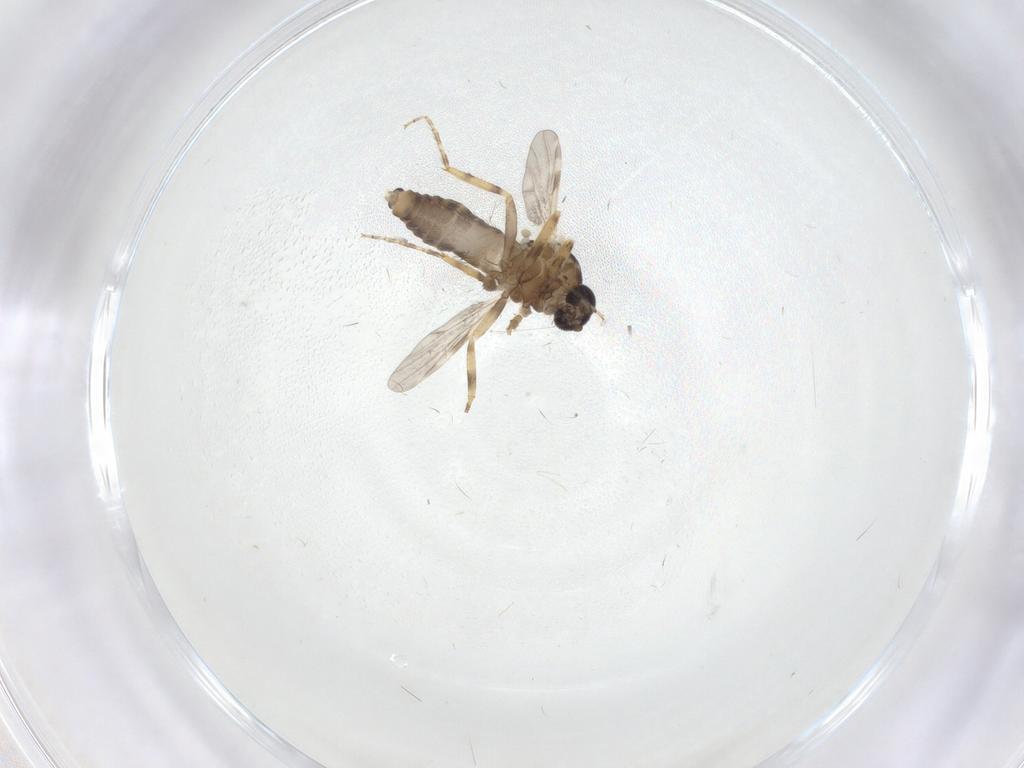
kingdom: Animalia
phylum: Arthropoda
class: Insecta
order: Diptera
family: Ceratopogonidae
